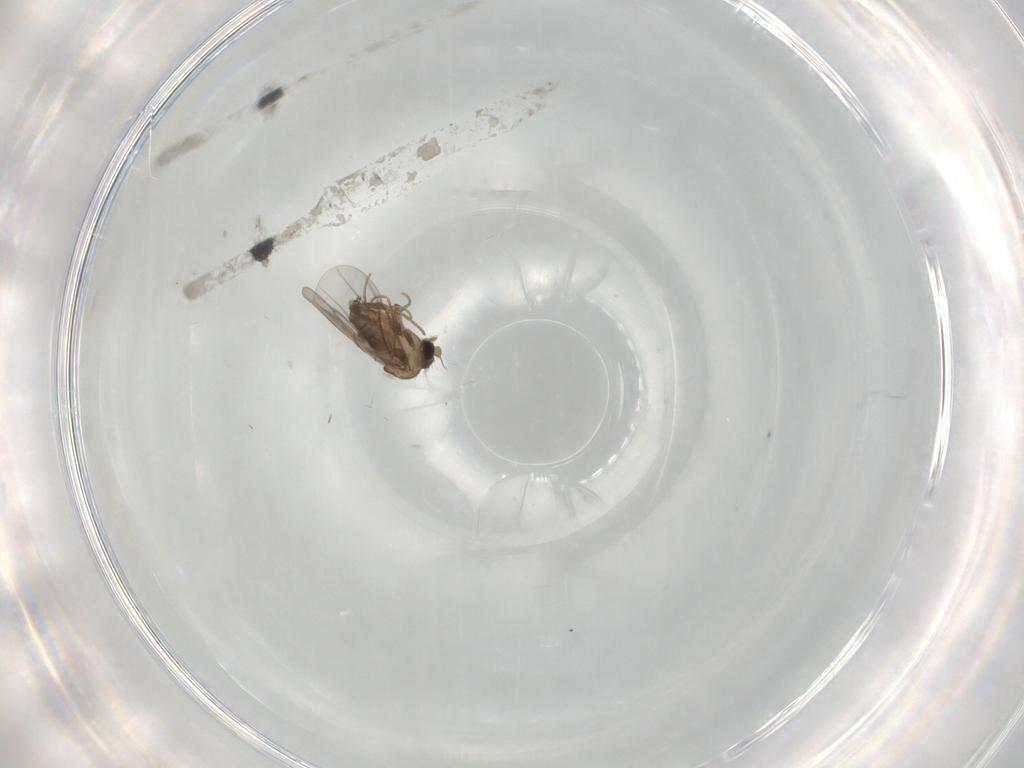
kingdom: Animalia
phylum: Arthropoda
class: Insecta
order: Diptera
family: Cecidomyiidae
